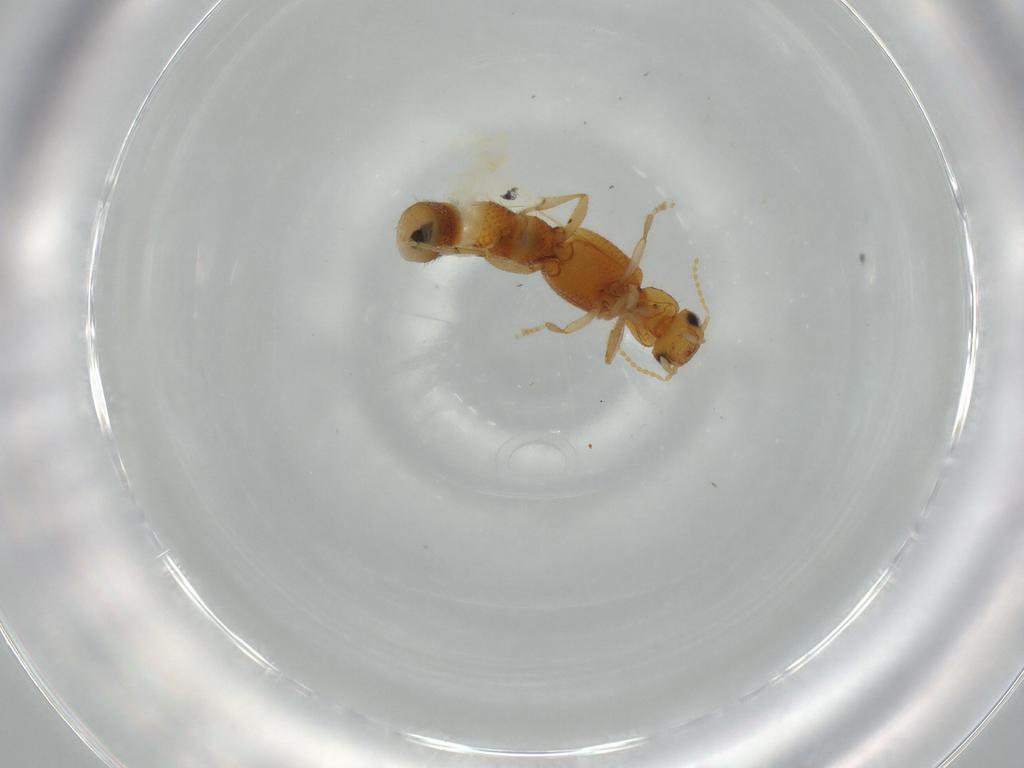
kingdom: Animalia
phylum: Arthropoda
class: Insecta
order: Coleoptera
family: Staphylinidae
